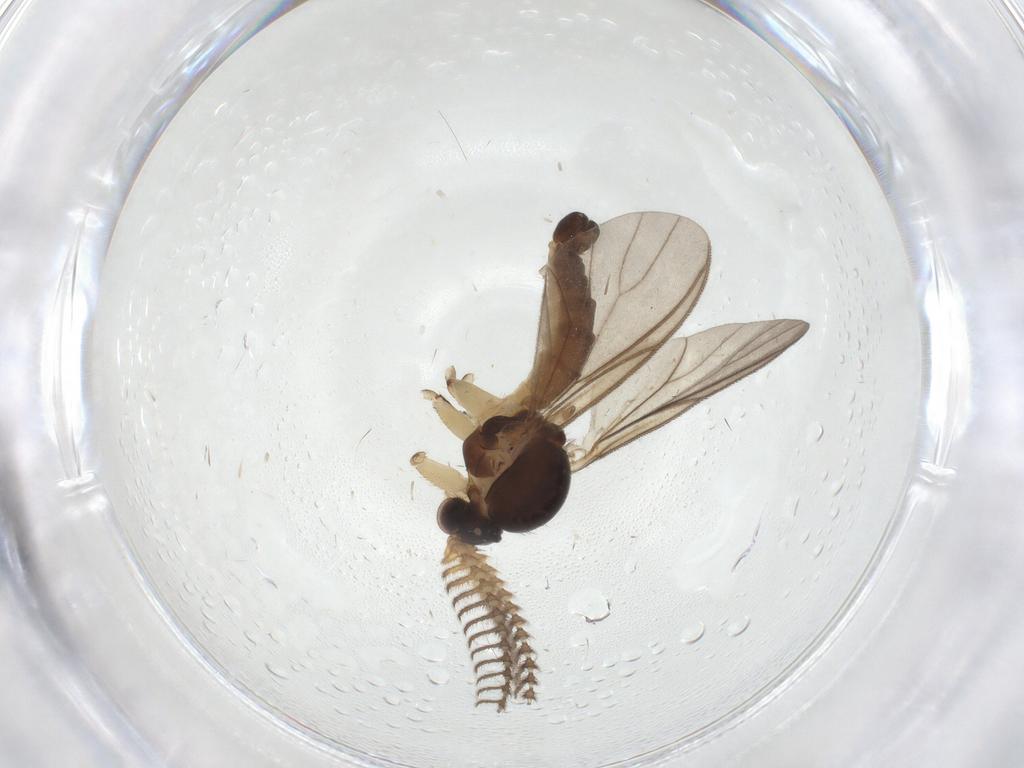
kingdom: Animalia
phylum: Arthropoda
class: Insecta
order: Diptera
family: Mycetophilidae
